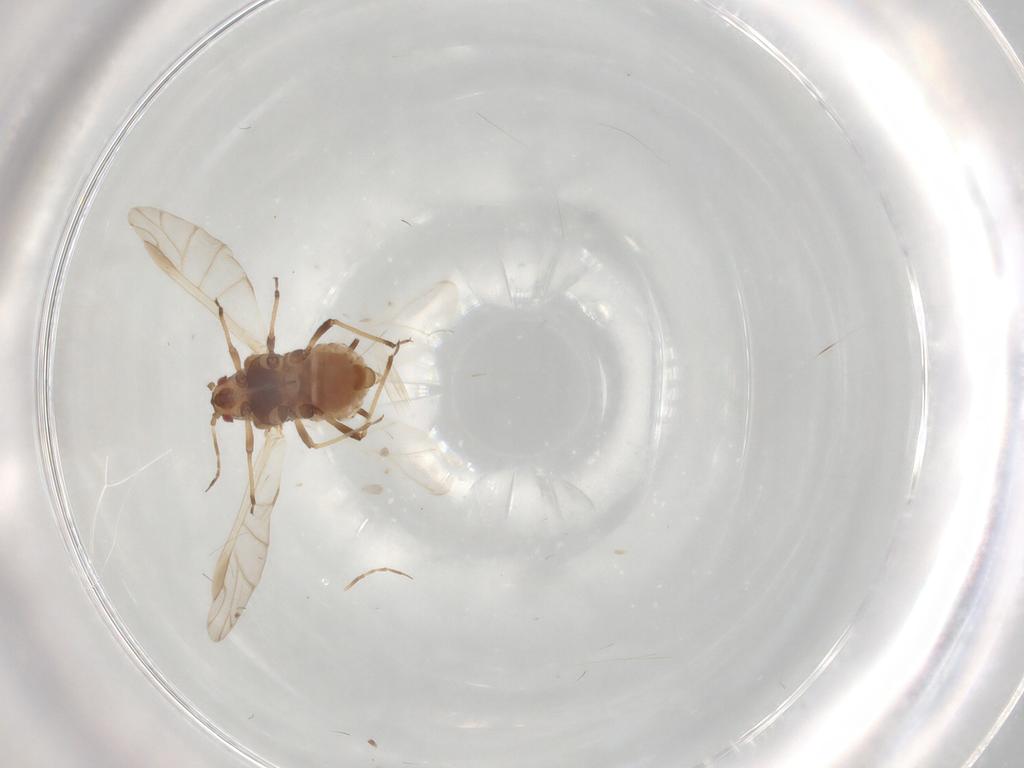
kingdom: Animalia
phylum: Arthropoda
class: Insecta
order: Hemiptera
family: Aphididae
